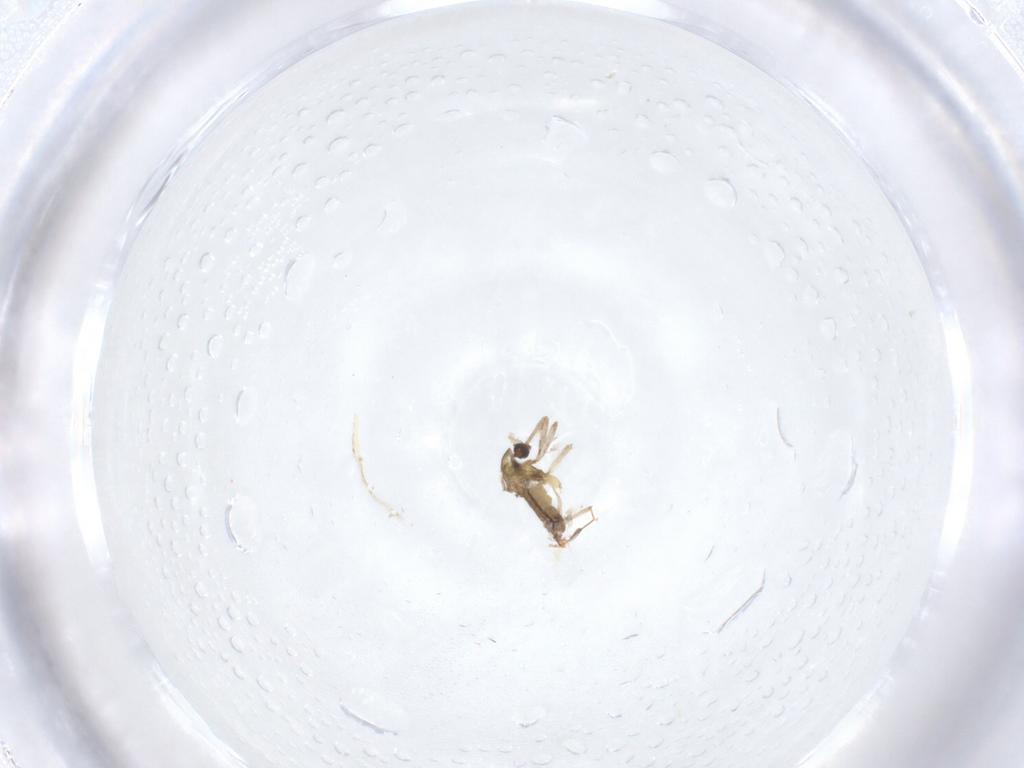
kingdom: Animalia
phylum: Arthropoda
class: Insecta
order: Diptera
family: Chironomidae
